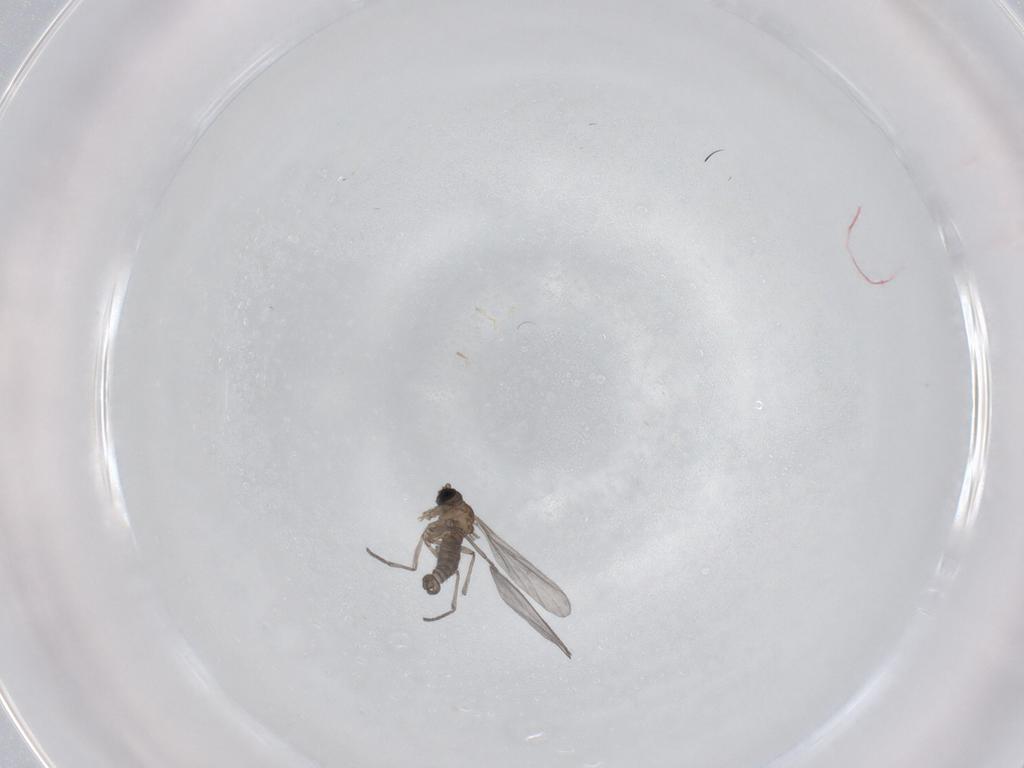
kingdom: Animalia
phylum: Arthropoda
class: Insecta
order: Diptera
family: Sciaridae
